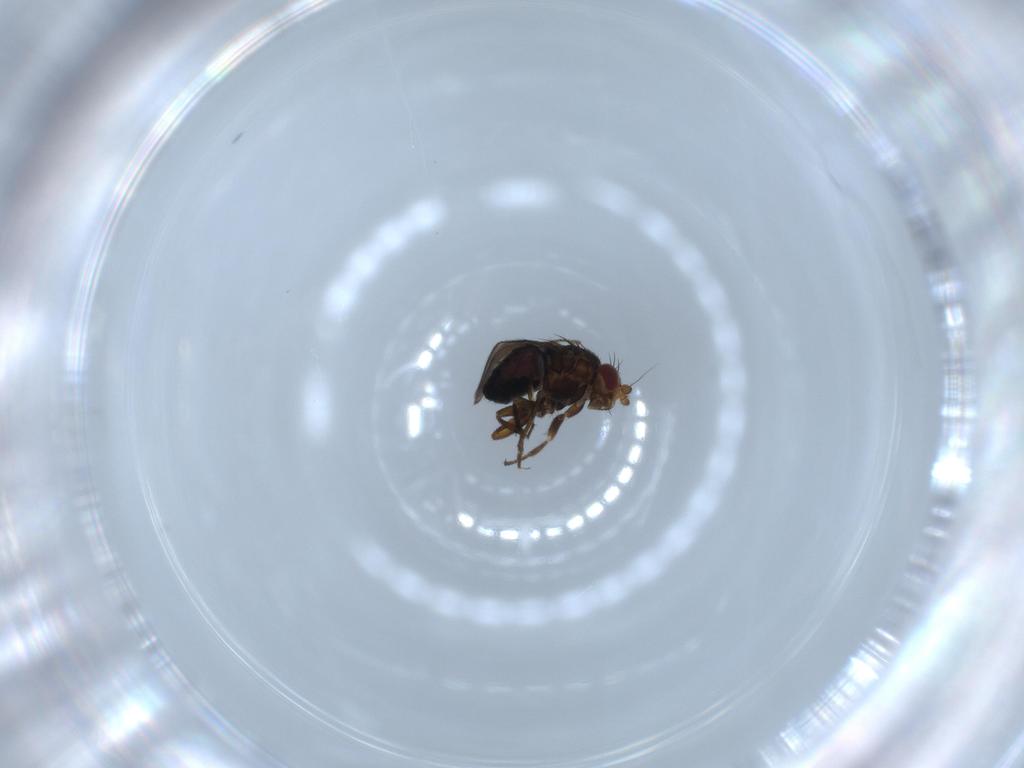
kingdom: Animalia
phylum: Arthropoda
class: Insecta
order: Diptera
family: Sphaeroceridae
